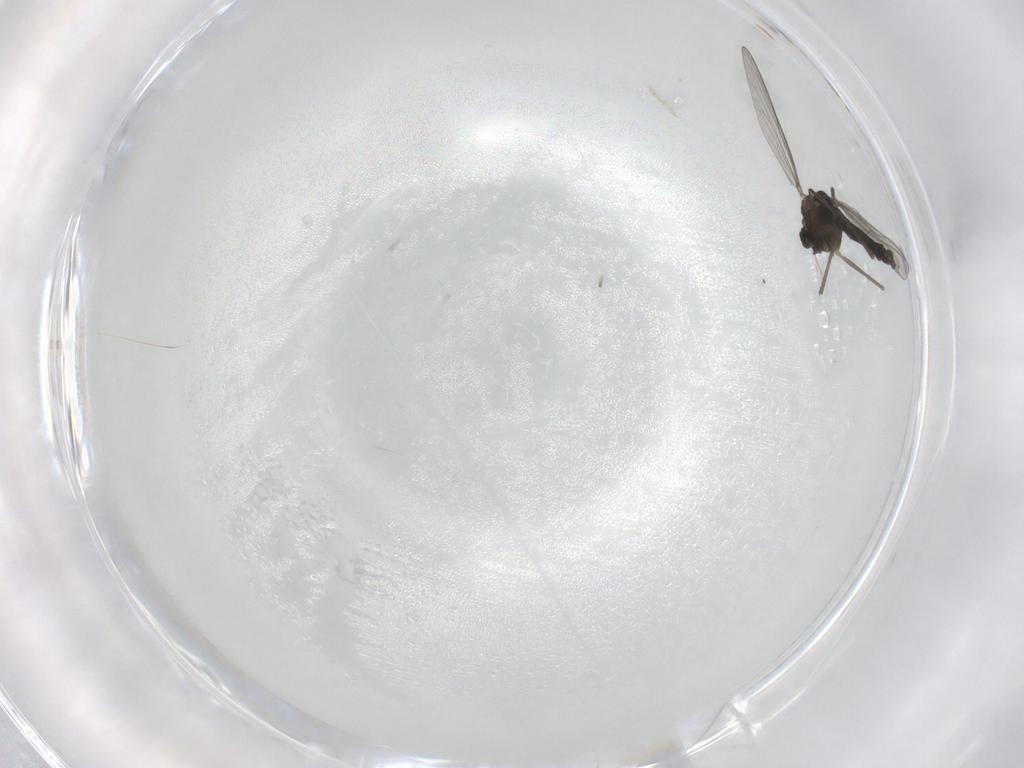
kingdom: Animalia
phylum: Arthropoda
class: Insecta
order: Diptera
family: Chironomidae
